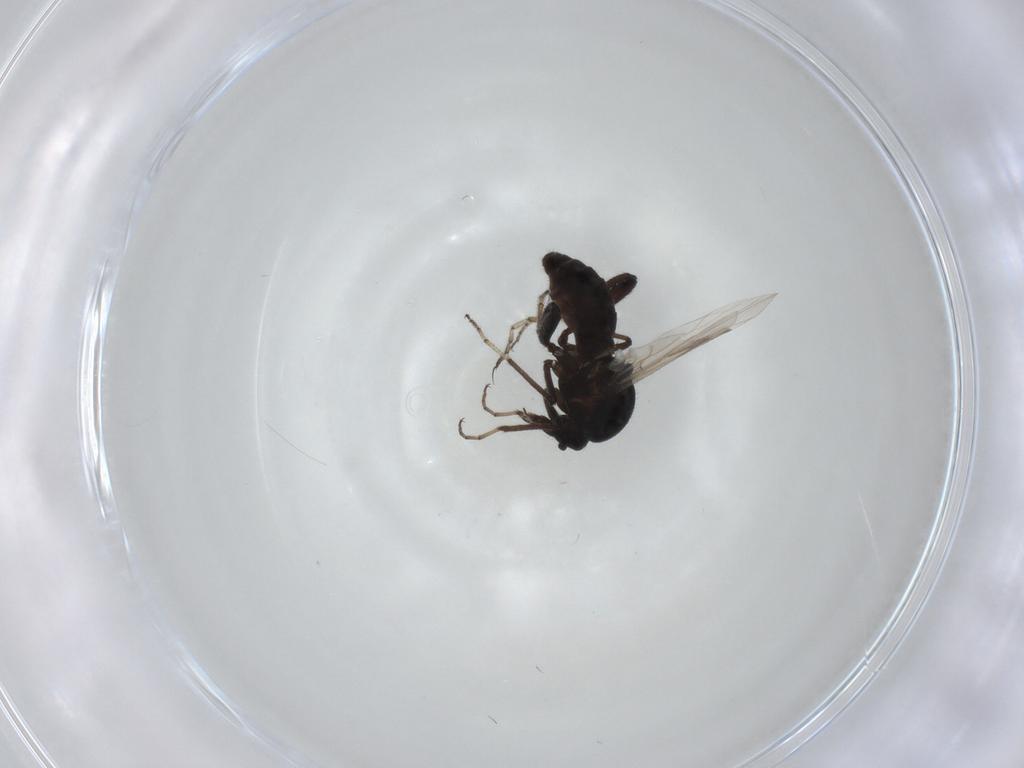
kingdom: Animalia
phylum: Arthropoda
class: Insecta
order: Diptera
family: Ceratopogonidae
